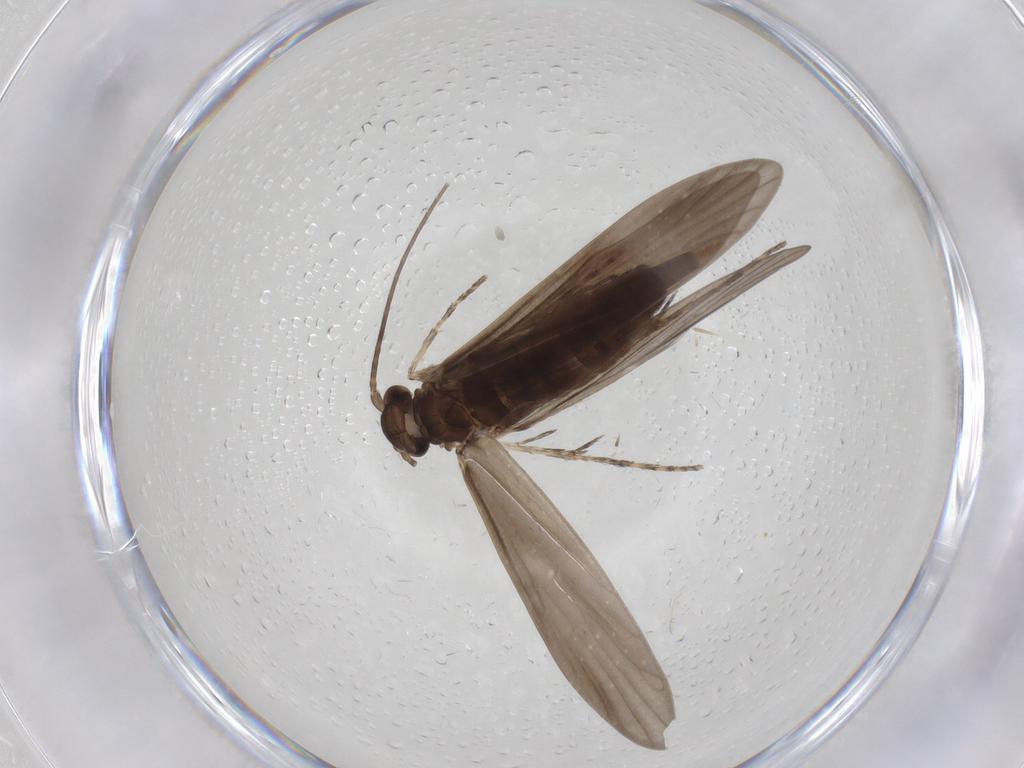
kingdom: Animalia
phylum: Arthropoda
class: Insecta
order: Trichoptera
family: Xiphocentronidae
